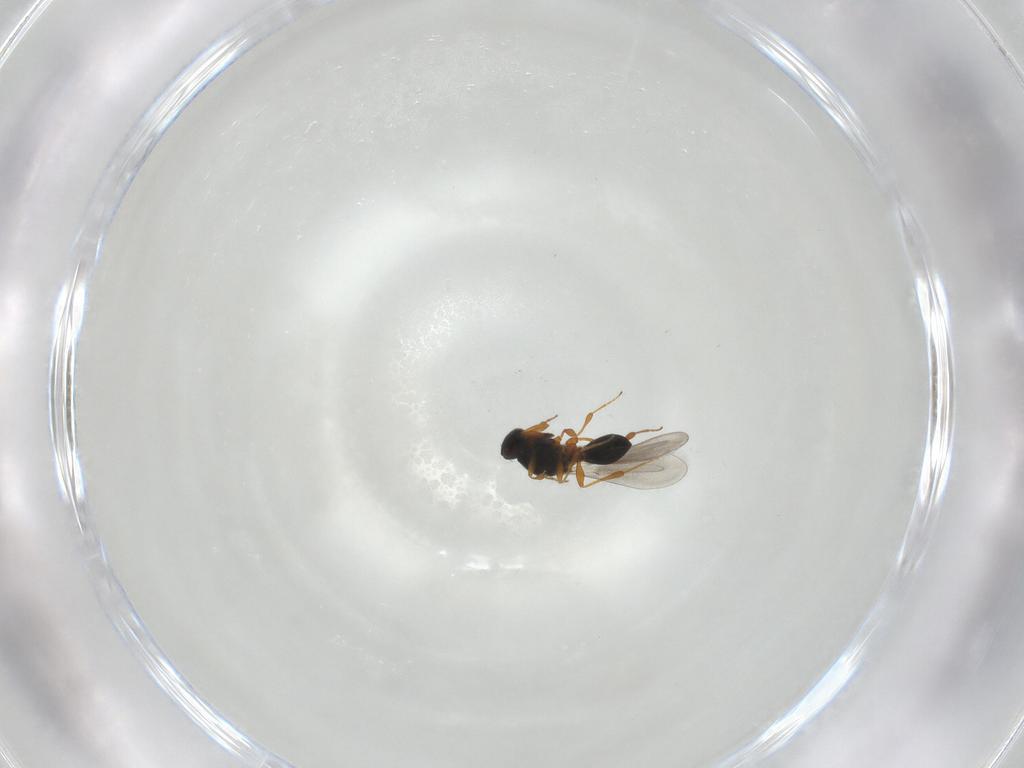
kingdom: Animalia
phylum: Arthropoda
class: Insecta
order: Hymenoptera
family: Platygastridae
